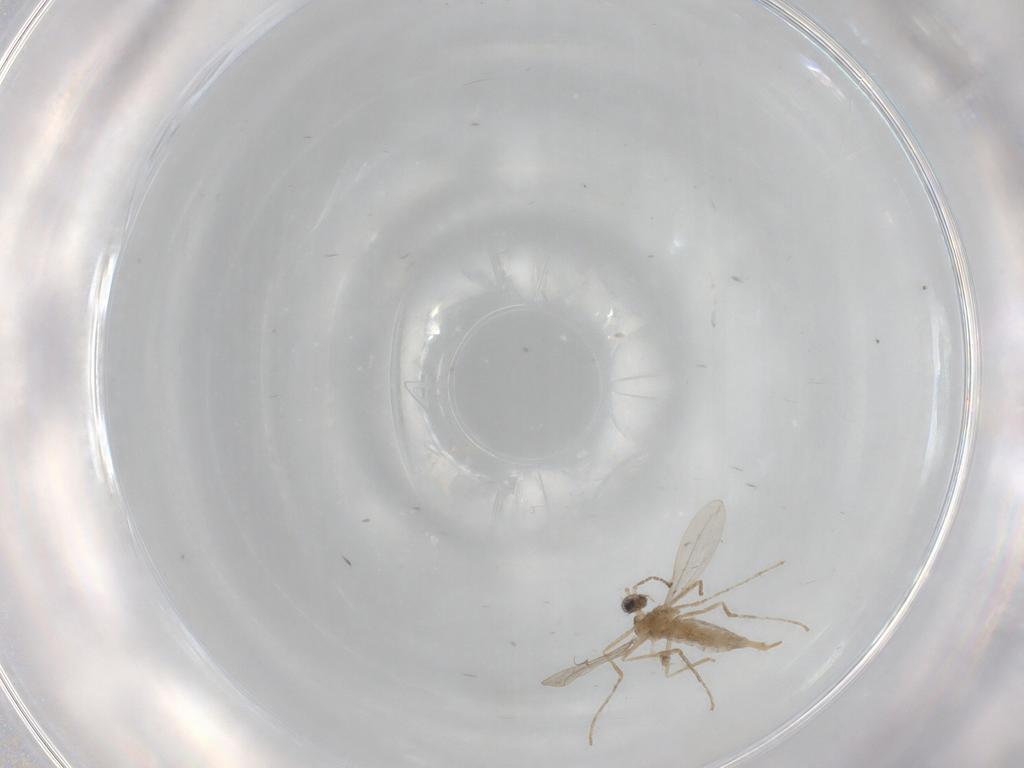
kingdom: Animalia
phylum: Arthropoda
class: Insecta
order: Diptera
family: Cecidomyiidae
